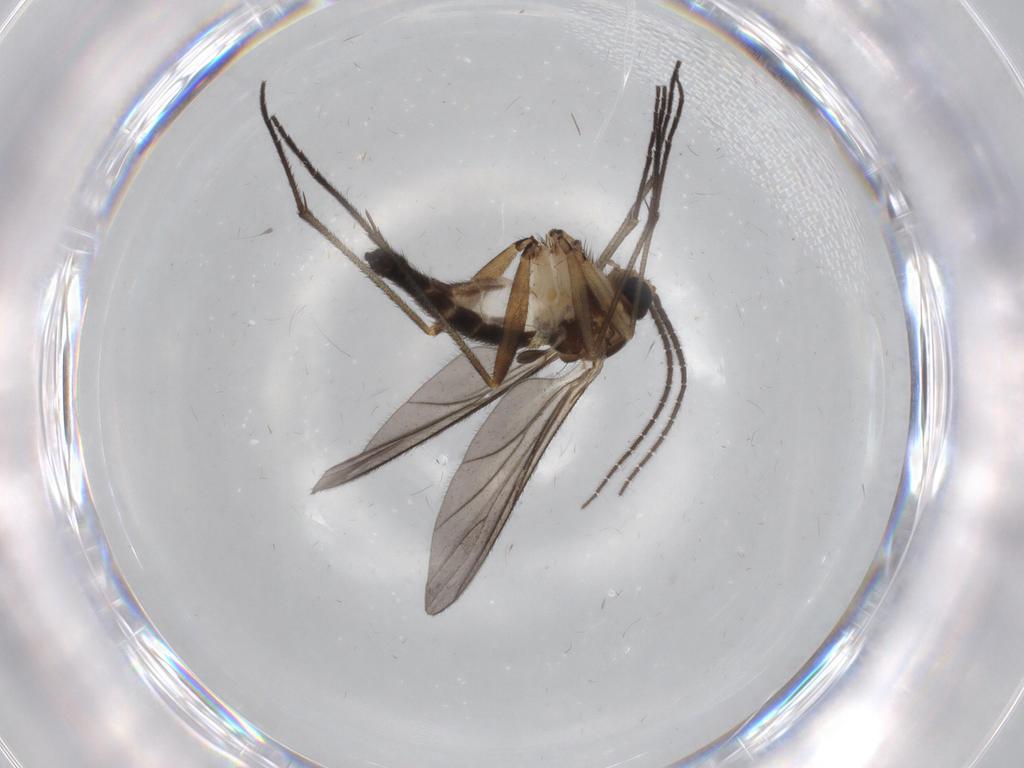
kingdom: Animalia
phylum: Arthropoda
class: Insecta
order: Diptera
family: Sciaridae
